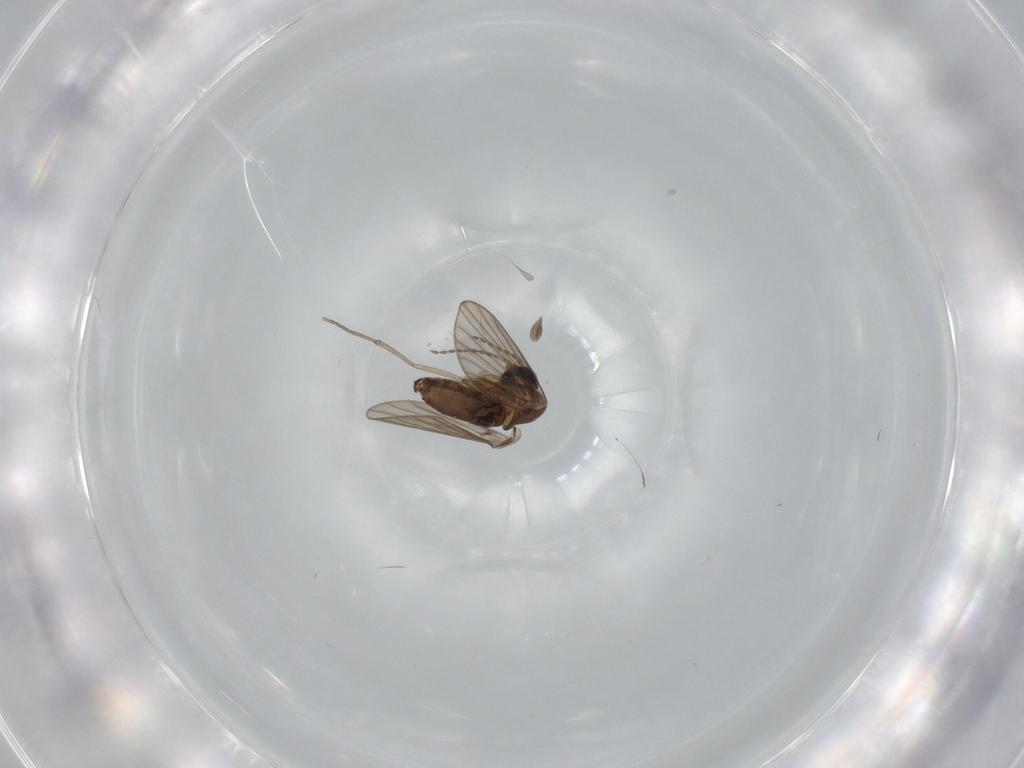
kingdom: Animalia
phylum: Arthropoda
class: Insecta
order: Diptera
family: Psychodidae
